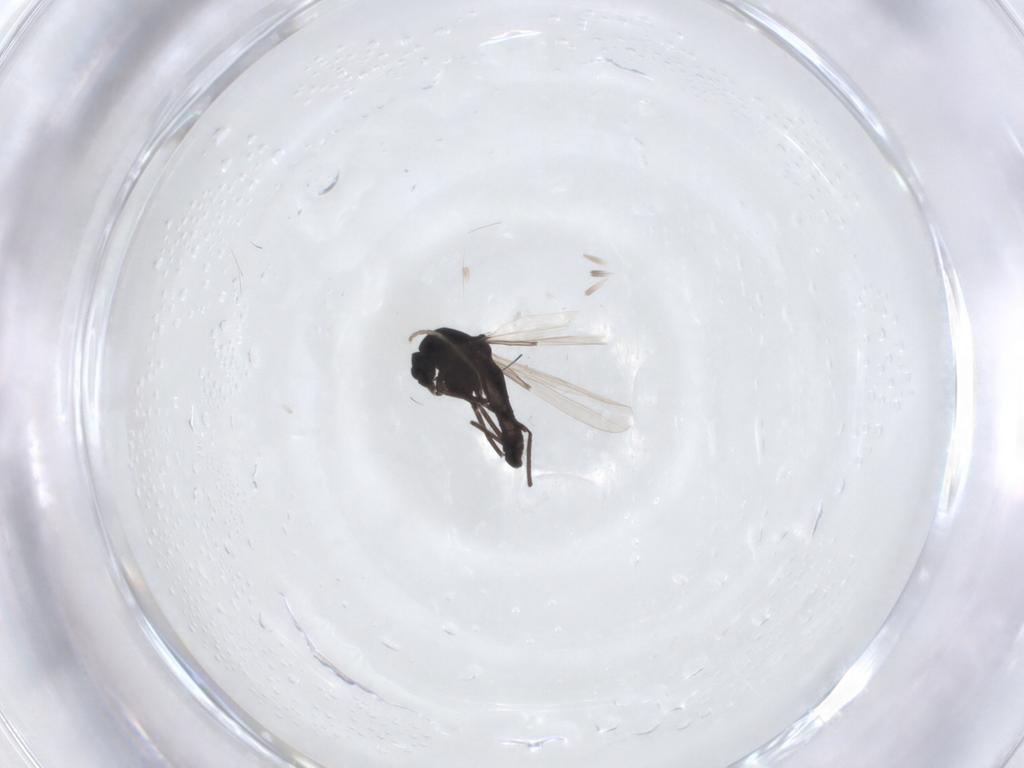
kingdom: Animalia
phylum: Arthropoda
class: Insecta
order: Diptera
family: Ceratopogonidae
